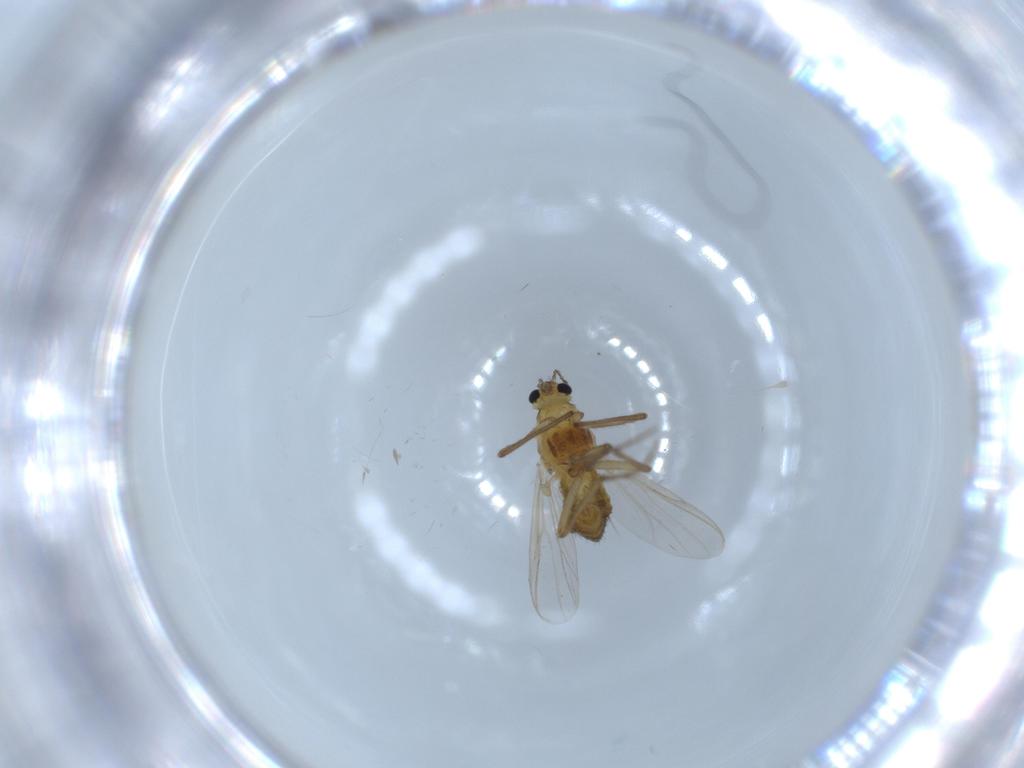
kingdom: Animalia
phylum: Arthropoda
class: Insecta
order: Diptera
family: Chironomidae
